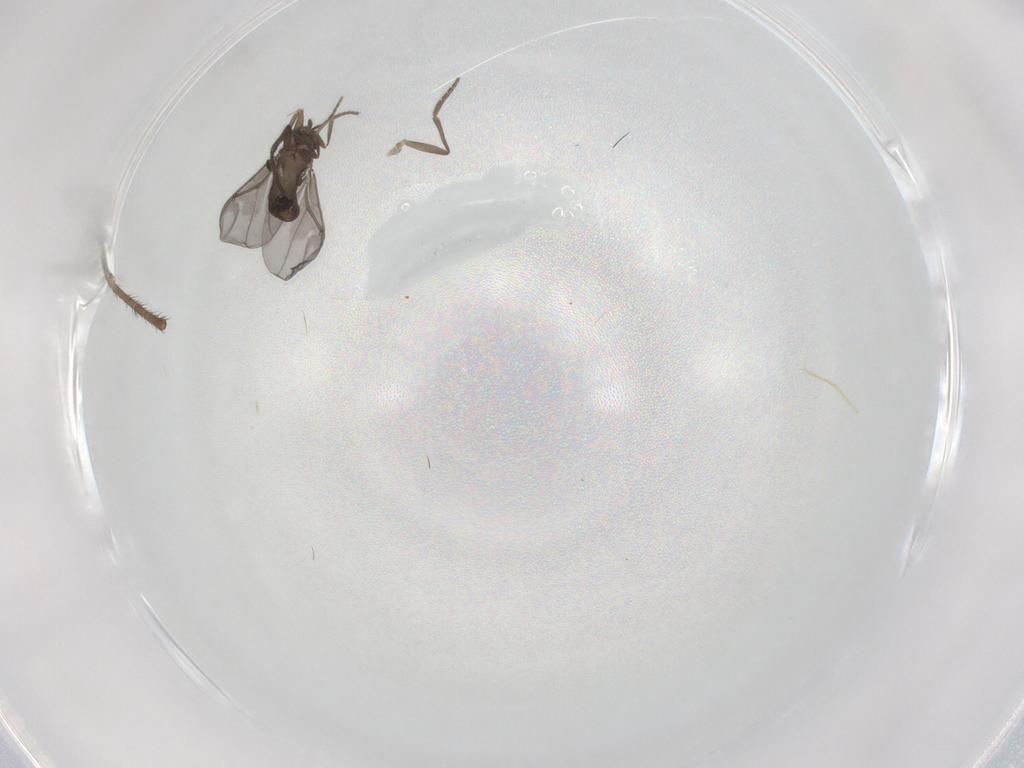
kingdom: Animalia
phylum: Arthropoda
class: Insecta
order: Diptera
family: Phoridae
